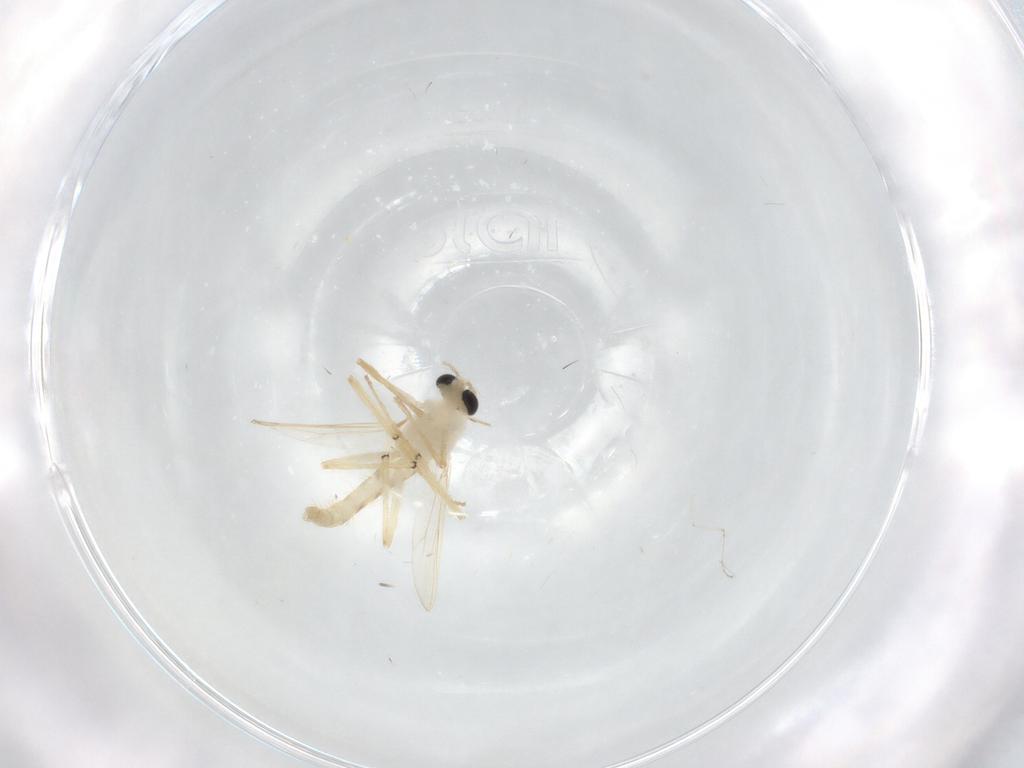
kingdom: Animalia
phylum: Arthropoda
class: Insecta
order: Diptera
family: Chironomidae
